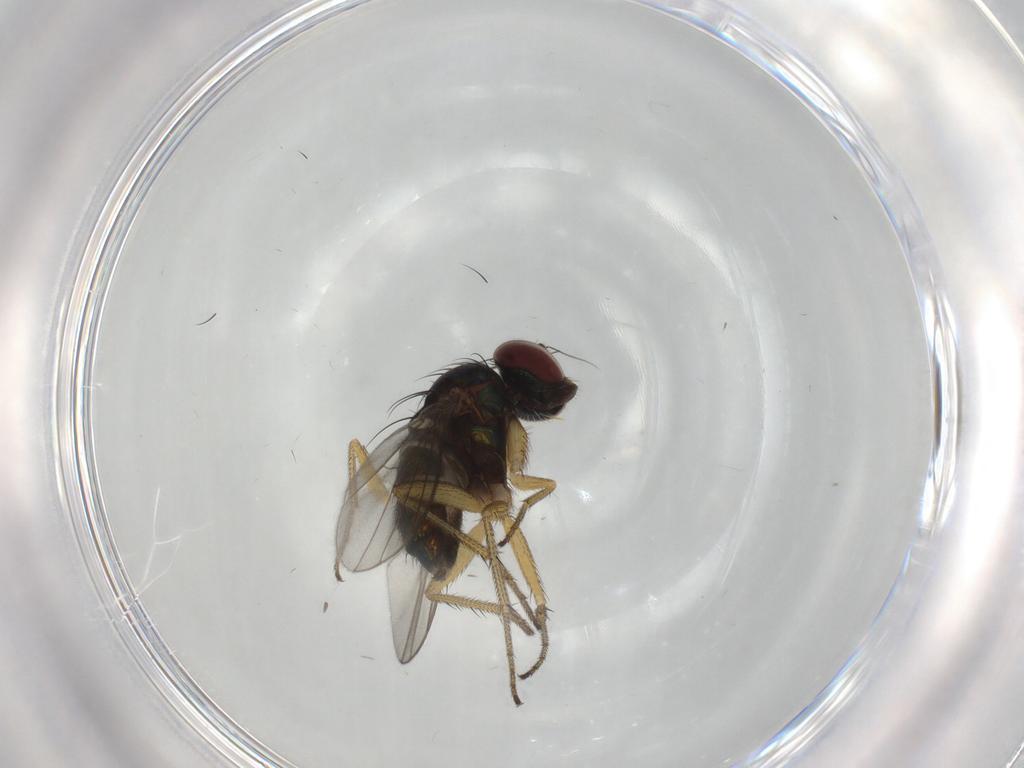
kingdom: Animalia
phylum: Arthropoda
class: Insecta
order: Diptera
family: Dolichopodidae
